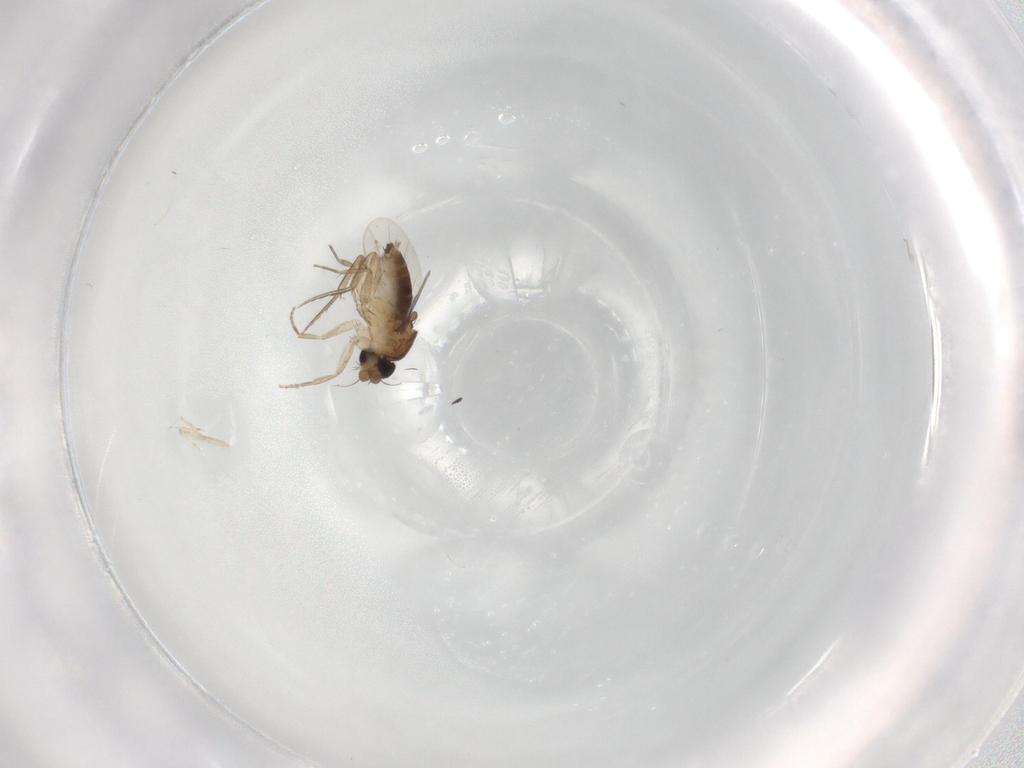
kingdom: Animalia
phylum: Arthropoda
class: Insecta
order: Diptera
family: Phoridae
